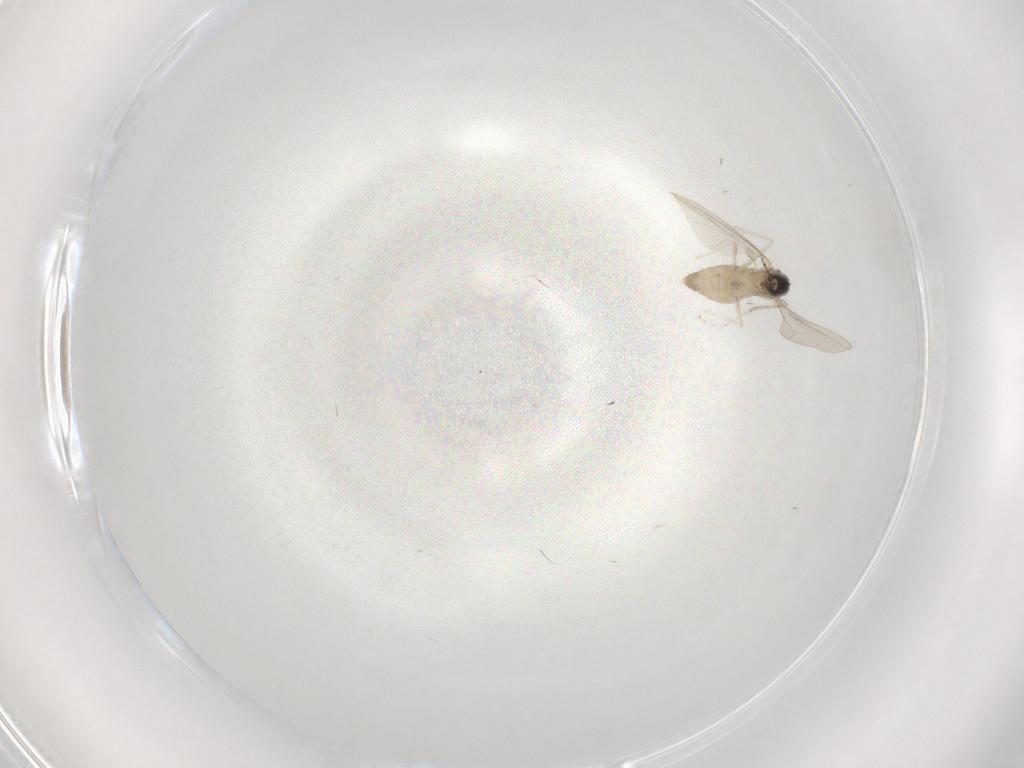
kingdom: Animalia
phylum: Arthropoda
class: Insecta
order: Diptera
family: Cecidomyiidae
